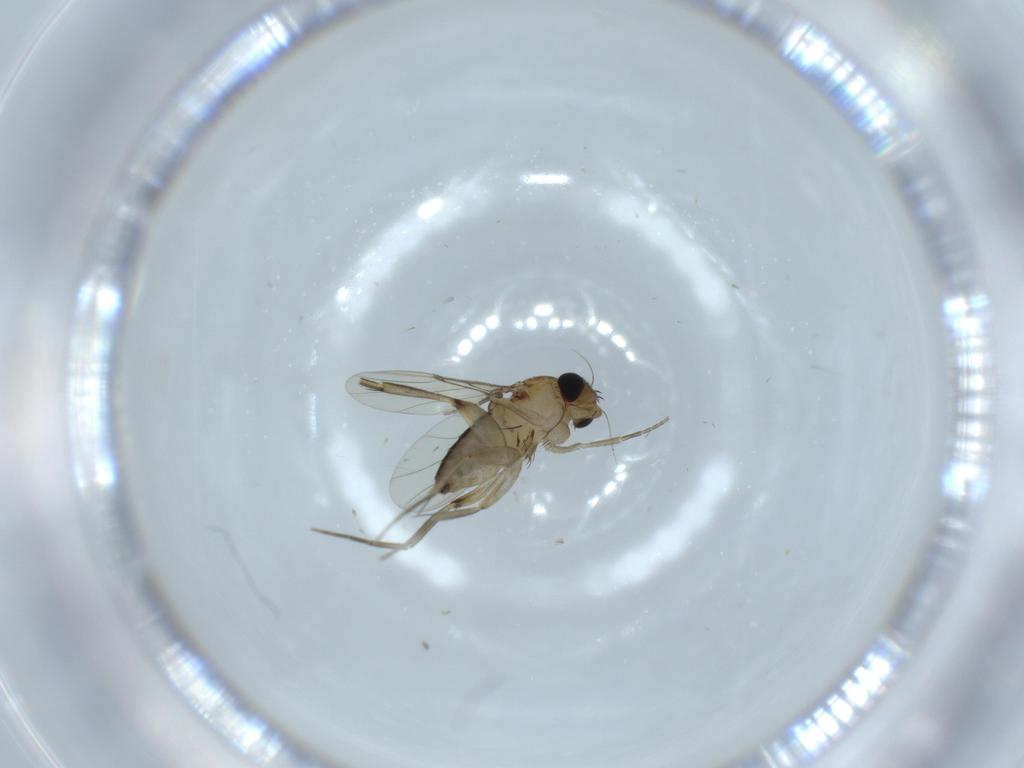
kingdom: Animalia
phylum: Arthropoda
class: Insecta
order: Diptera
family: Phoridae
